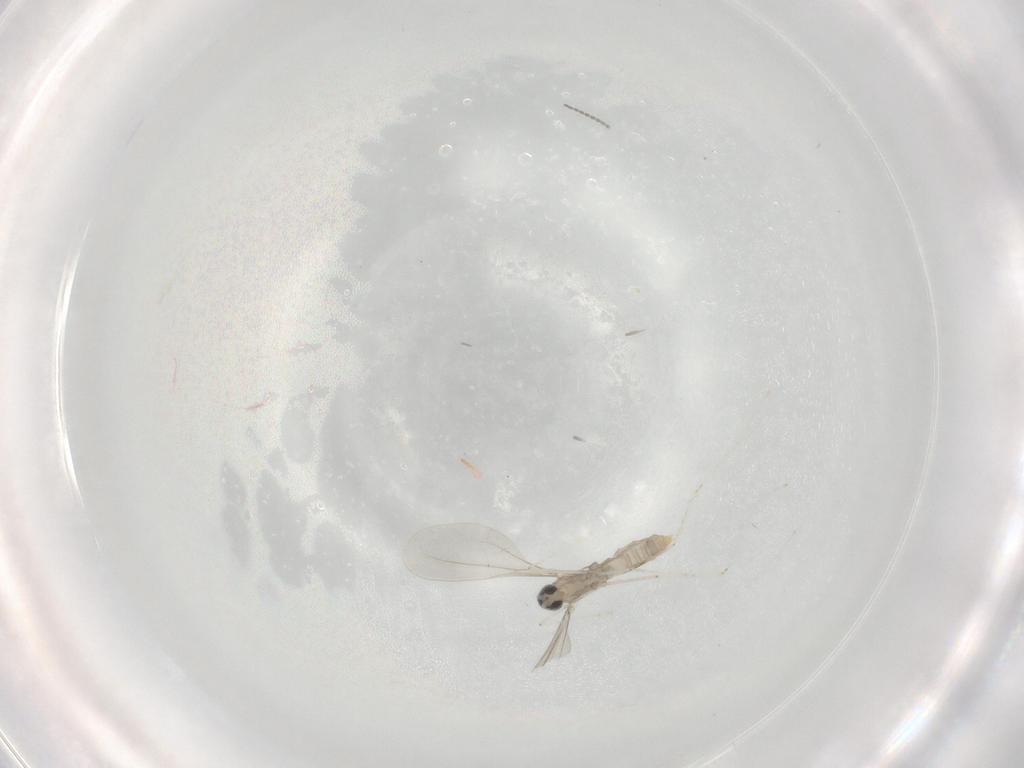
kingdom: Animalia
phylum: Arthropoda
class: Insecta
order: Diptera
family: Cecidomyiidae
